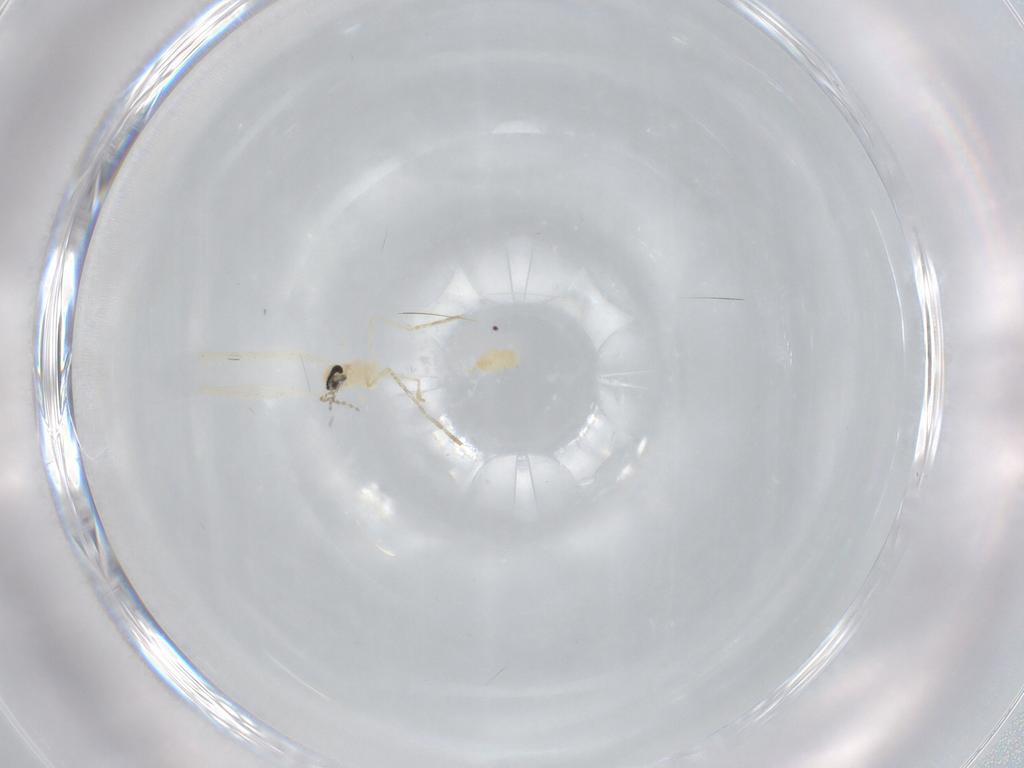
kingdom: Animalia
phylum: Arthropoda
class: Insecta
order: Diptera
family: Cecidomyiidae
